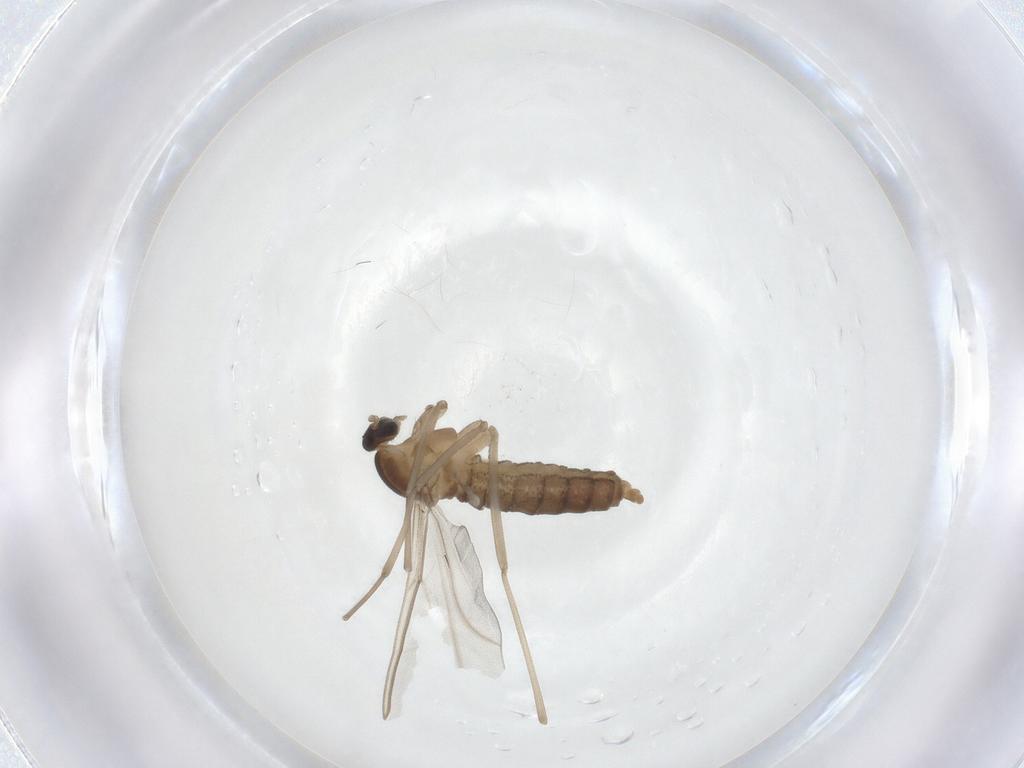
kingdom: Animalia
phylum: Arthropoda
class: Insecta
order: Diptera
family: Cecidomyiidae
